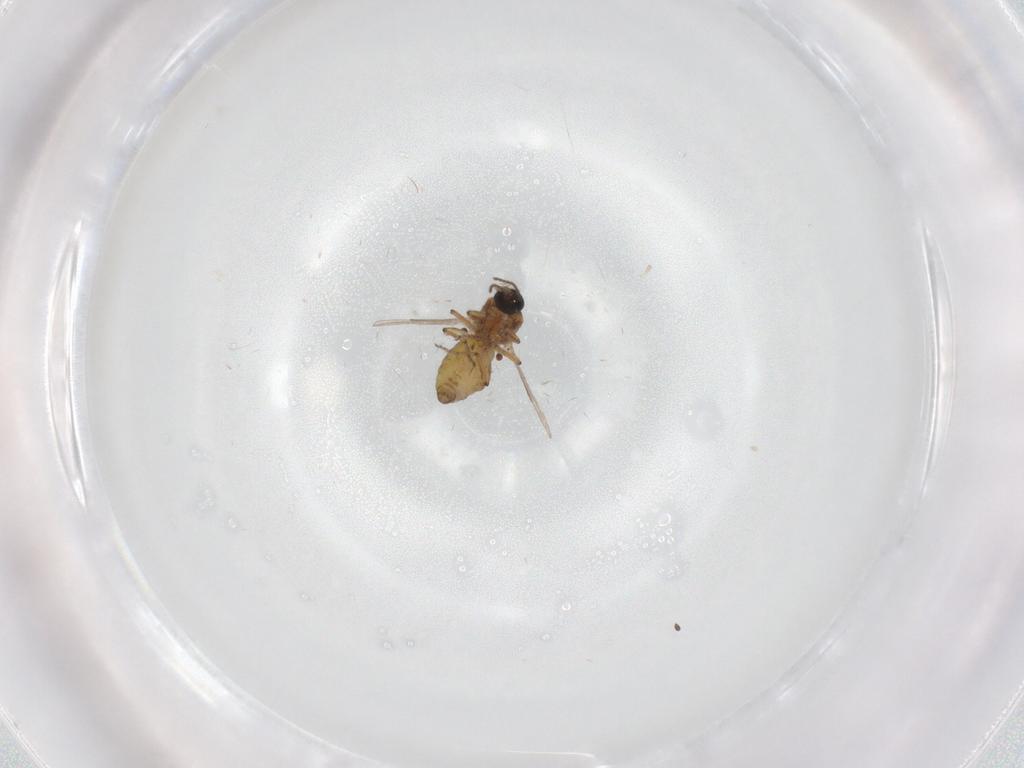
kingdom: Animalia
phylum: Arthropoda
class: Insecta
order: Diptera
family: Ceratopogonidae
